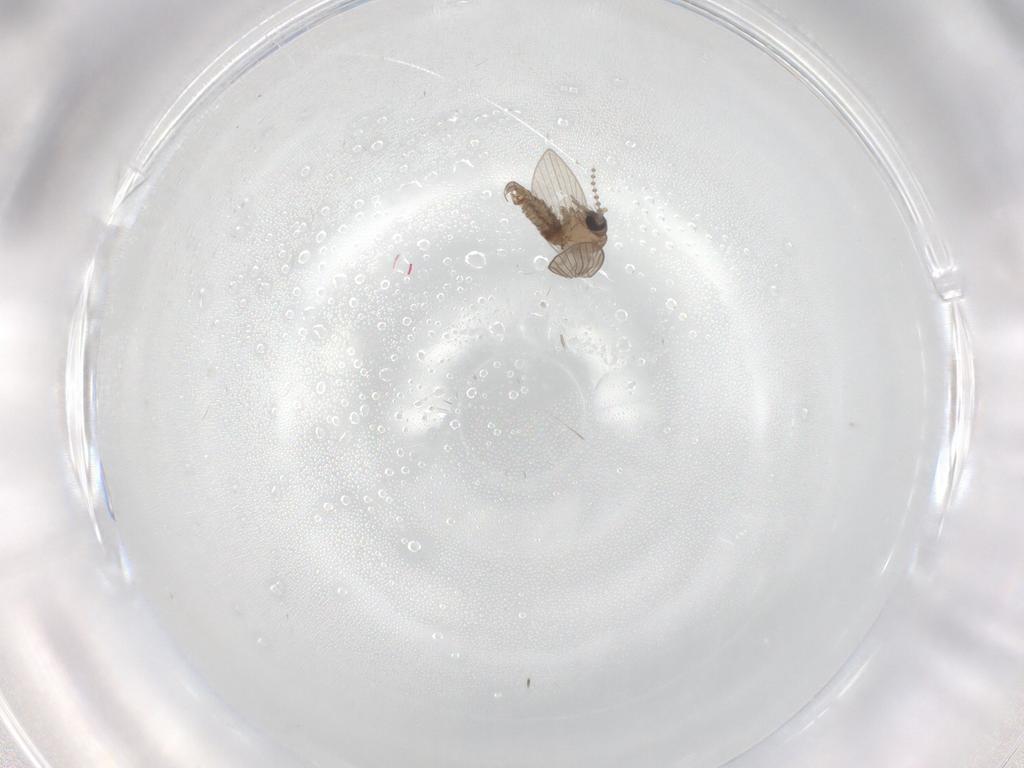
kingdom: Animalia
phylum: Arthropoda
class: Insecta
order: Diptera
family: Psychodidae
